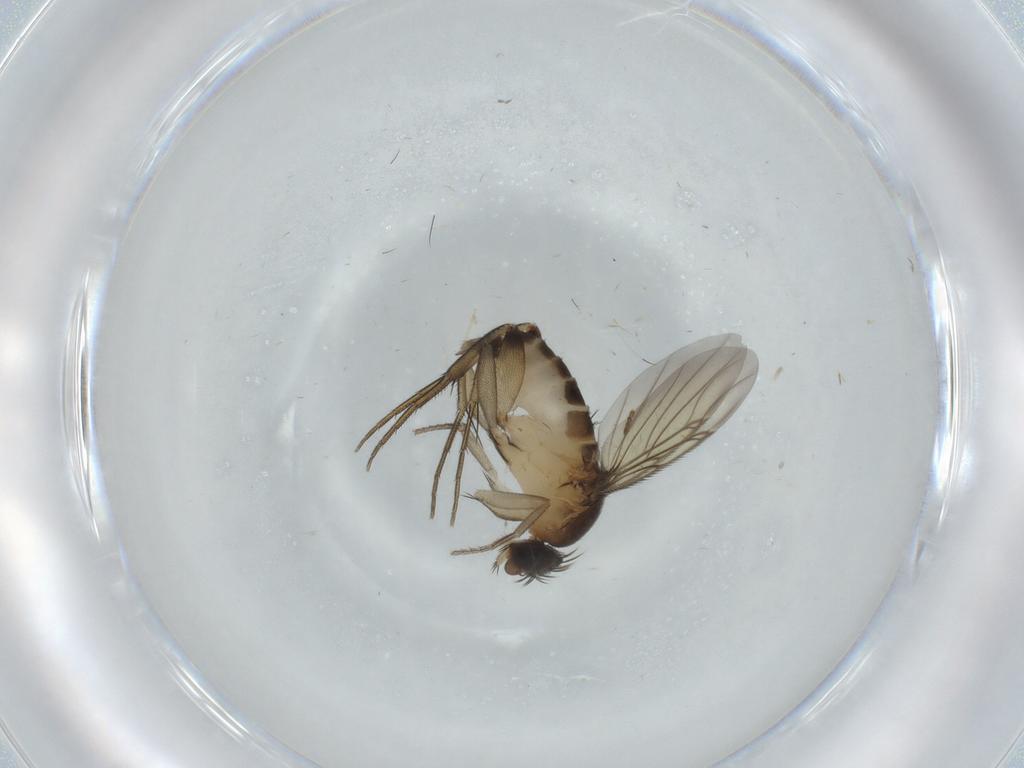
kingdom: Animalia
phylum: Arthropoda
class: Insecta
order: Diptera
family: Phoridae
